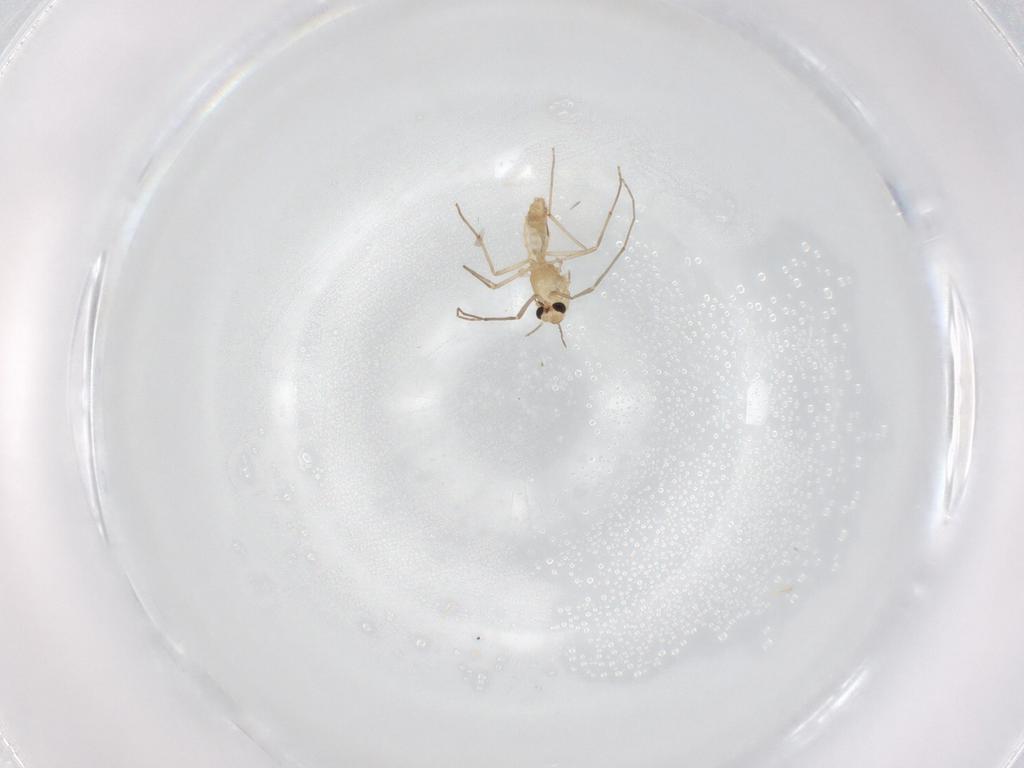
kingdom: Animalia
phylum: Arthropoda
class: Insecta
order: Diptera
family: Chironomidae
